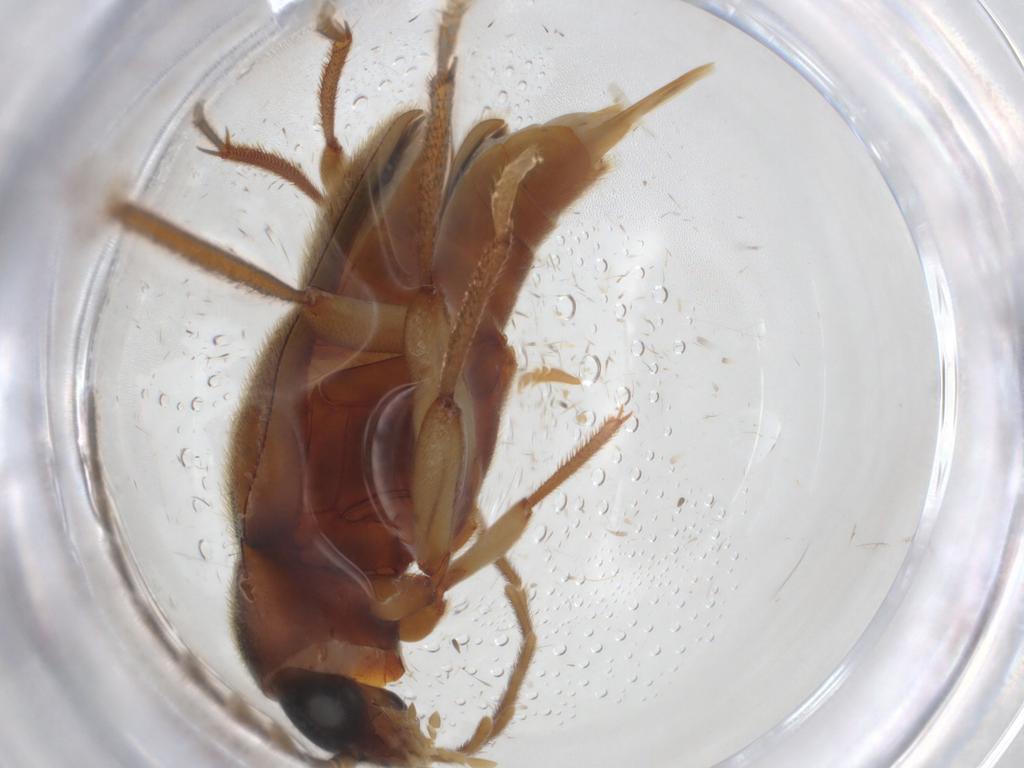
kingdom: Animalia
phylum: Arthropoda
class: Insecta
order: Coleoptera
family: Ptilodactylidae
